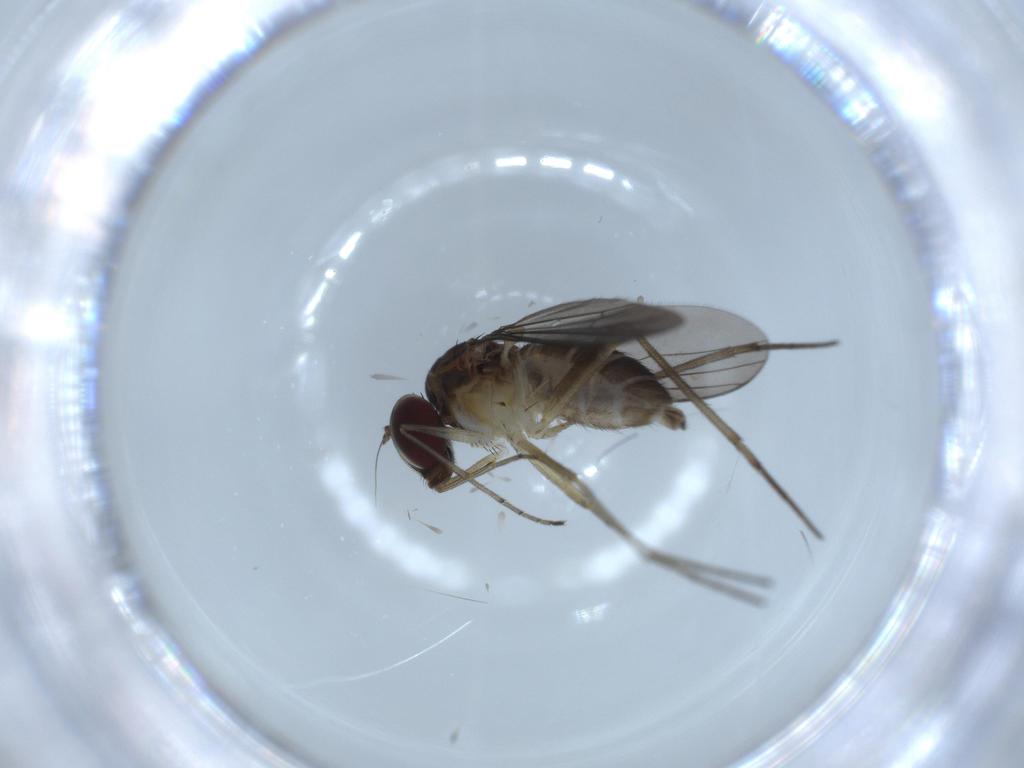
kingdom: Animalia
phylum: Arthropoda
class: Insecta
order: Diptera
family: Dolichopodidae
